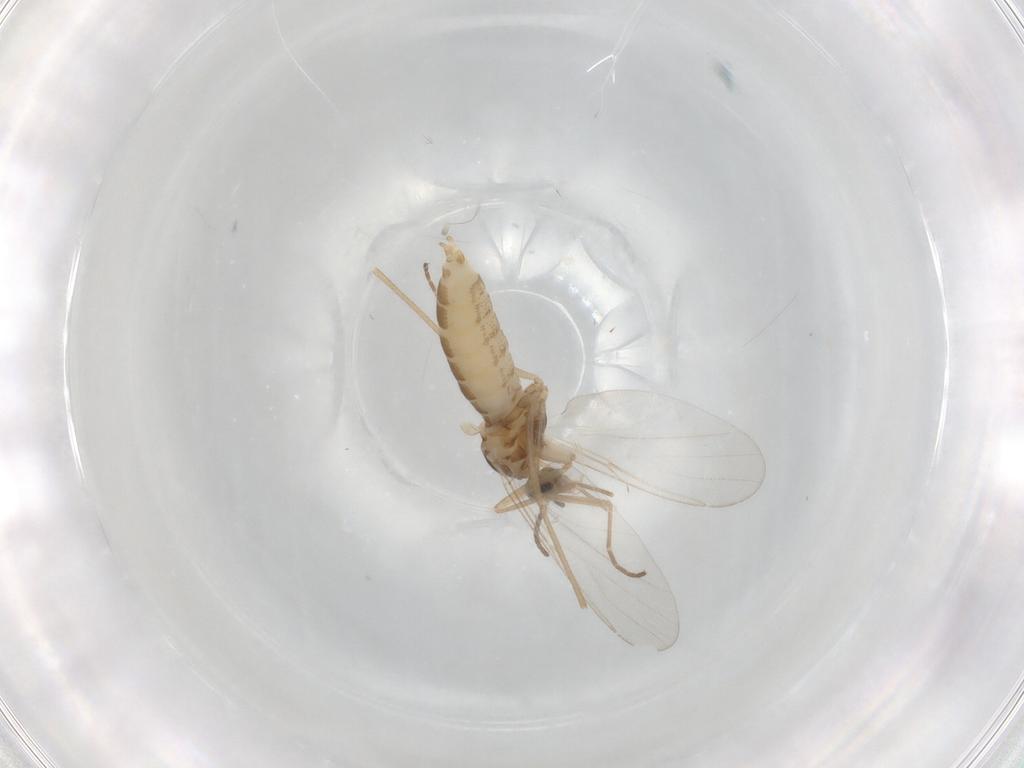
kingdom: Animalia
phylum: Arthropoda
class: Insecta
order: Diptera
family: Cecidomyiidae
